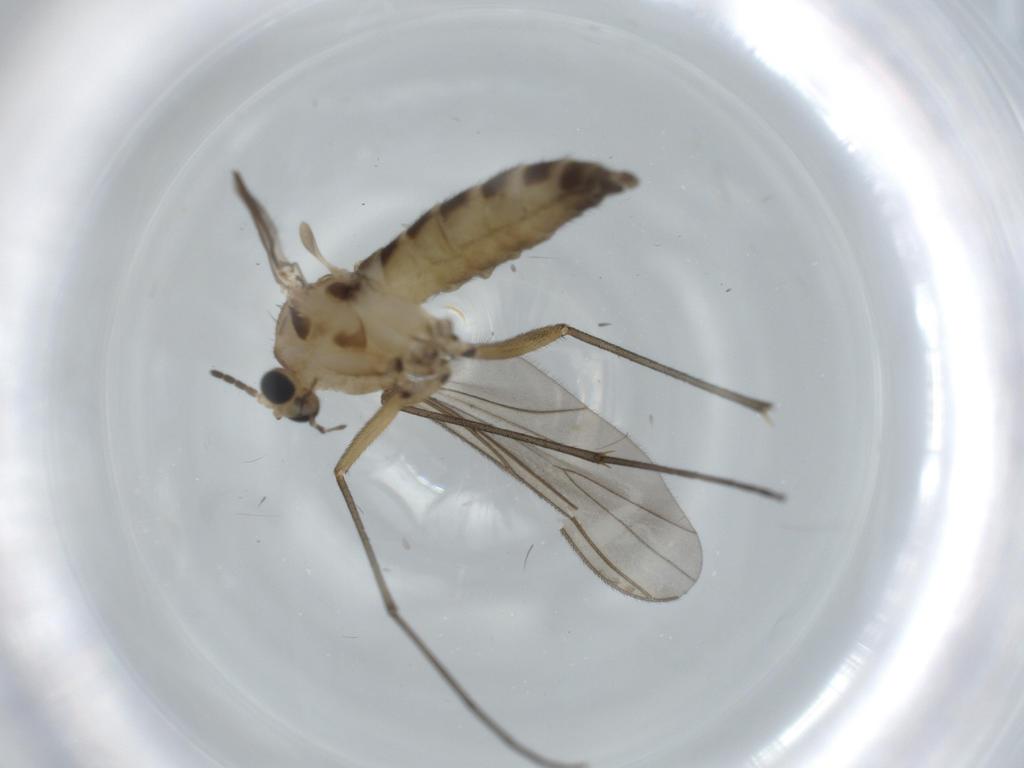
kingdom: Animalia
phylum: Arthropoda
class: Insecta
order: Diptera
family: Sciaridae
